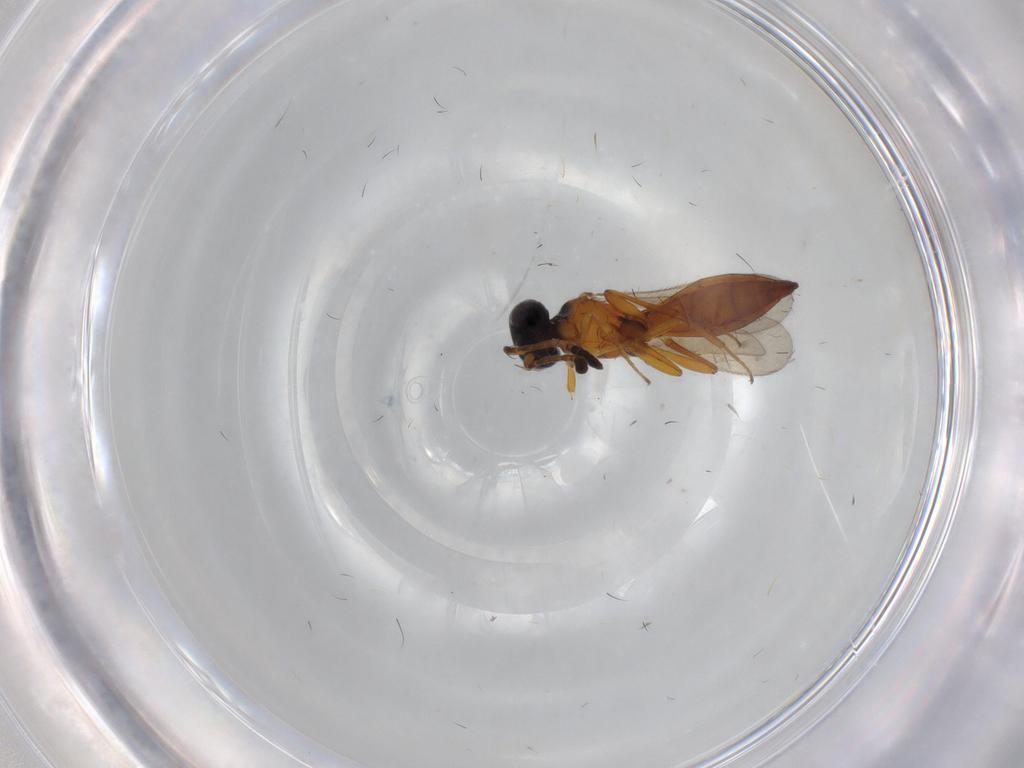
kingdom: Animalia
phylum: Arthropoda
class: Insecta
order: Hymenoptera
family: Scelionidae
